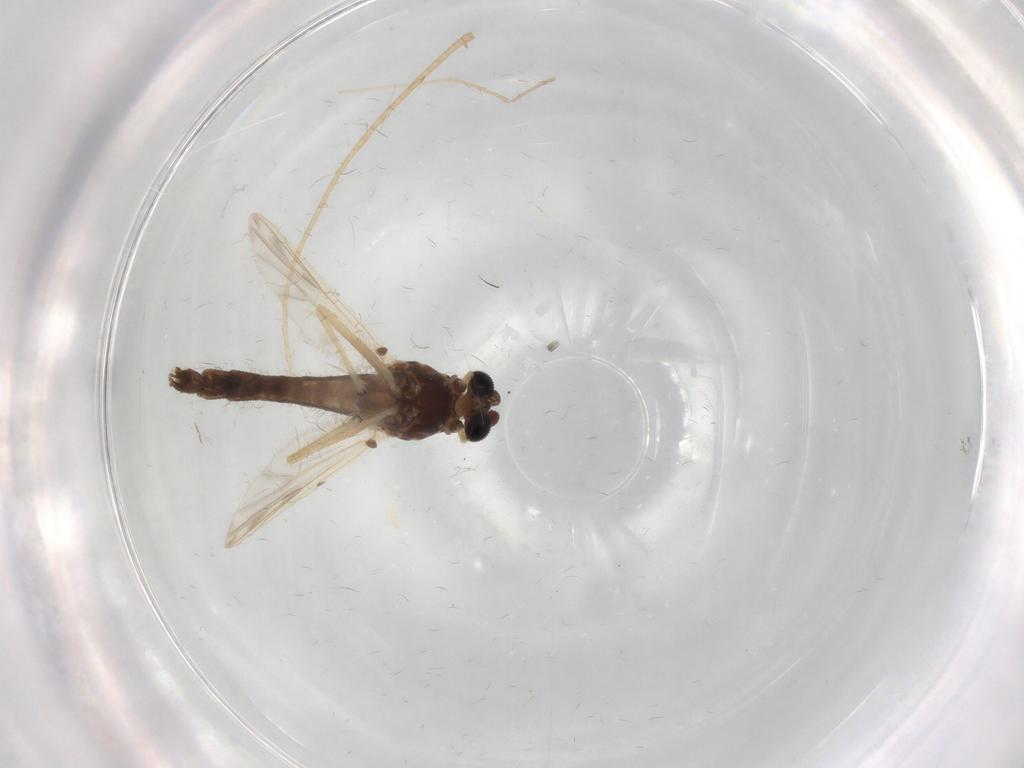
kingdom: Animalia
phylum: Arthropoda
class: Insecta
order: Diptera
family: Chironomidae
